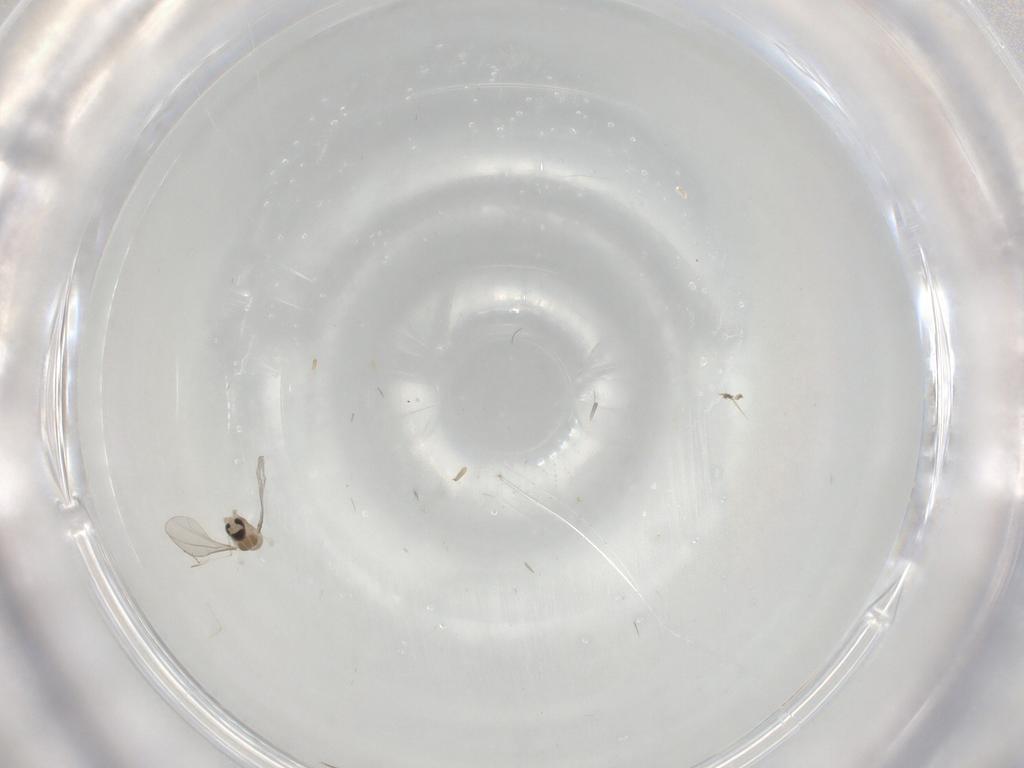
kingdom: Animalia
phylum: Arthropoda
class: Insecta
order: Diptera
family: Cecidomyiidae
